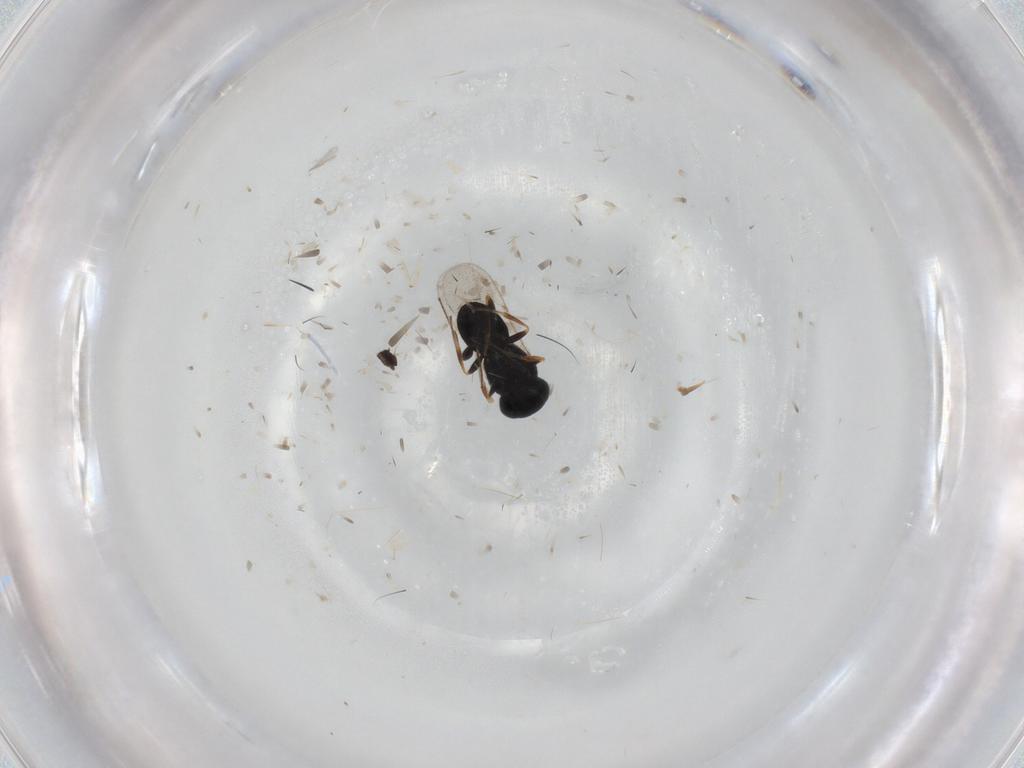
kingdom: Animalia
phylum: Arthropoda
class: Insecta
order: Hymenoptera
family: Scelionidae
